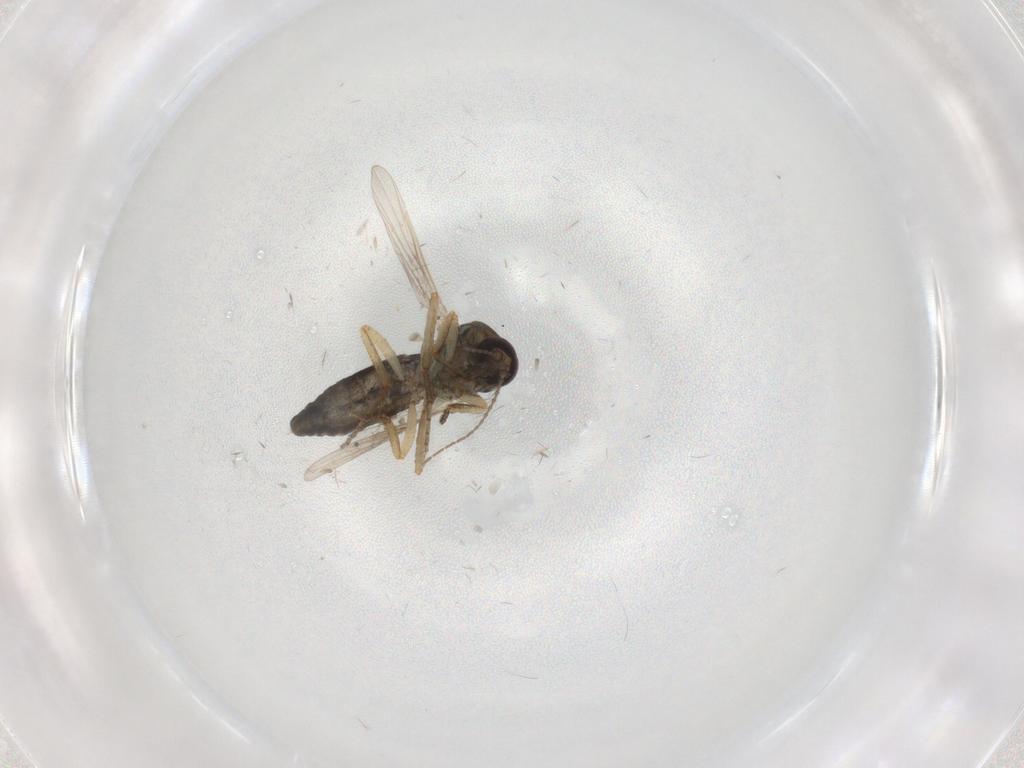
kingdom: Animalia
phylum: Arthropoda
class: Insecta
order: Diptera
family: Ceratopogonidae
